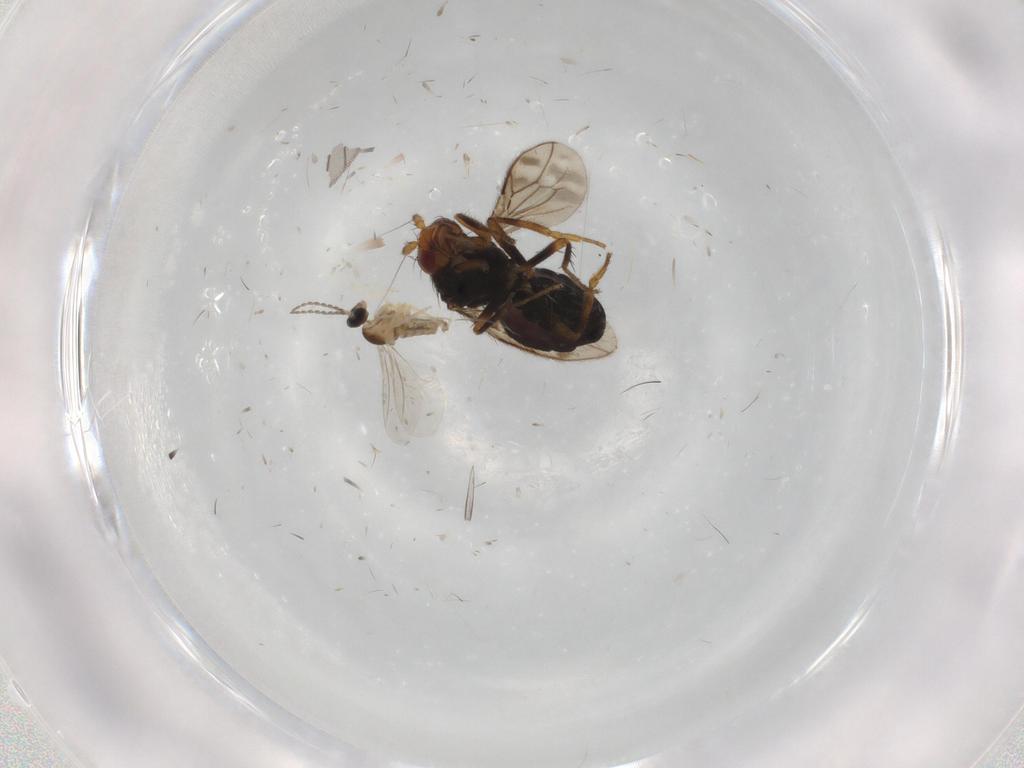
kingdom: Animalia
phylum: Arthropoda
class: Insecta
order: Diptera
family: Sphaeroceridae
